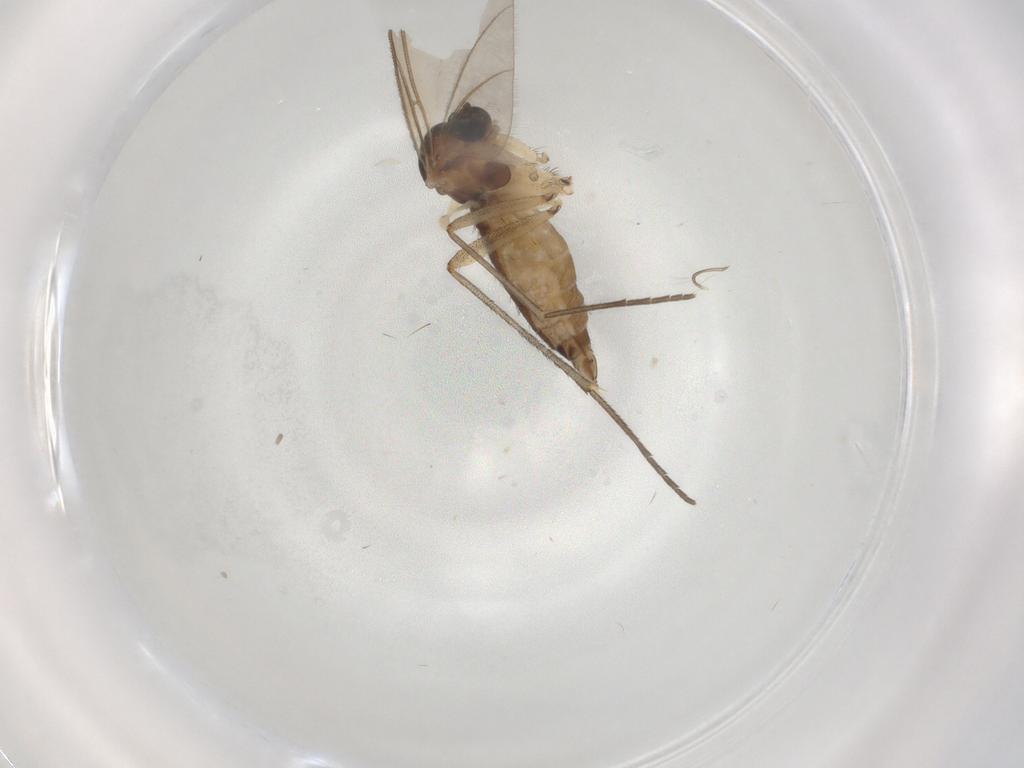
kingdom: Animalia
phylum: Arthropoda
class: Insecta
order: Diptera
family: Sciaridae
